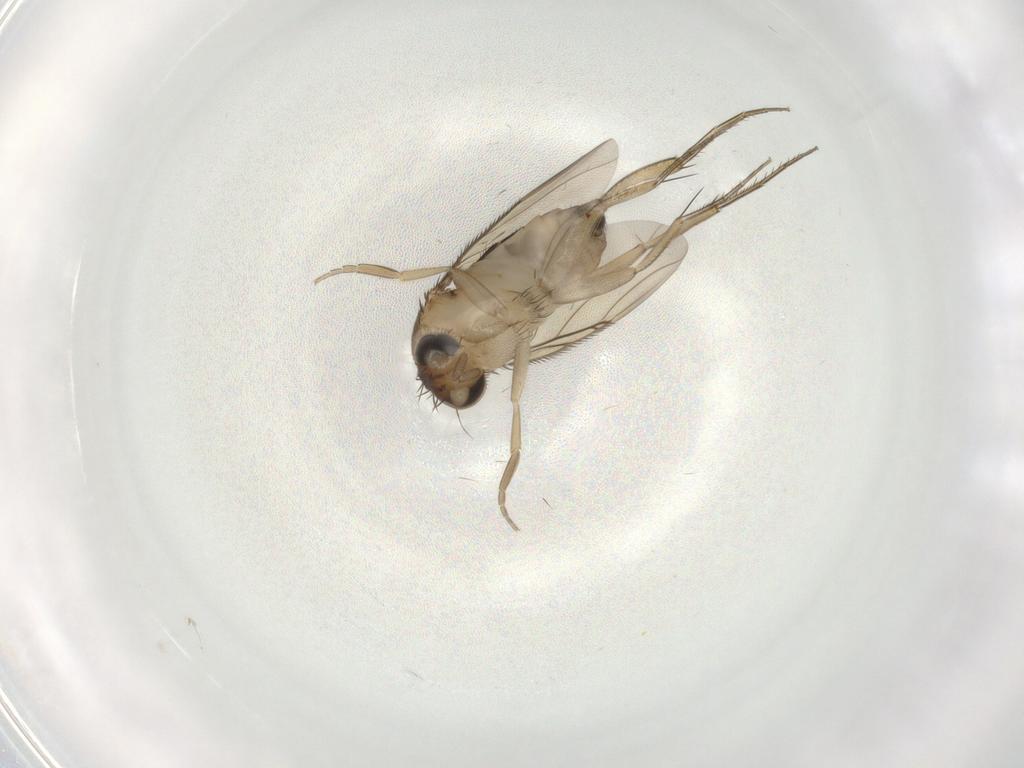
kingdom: Animalia
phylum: Arthropoda
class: Insecta
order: Diptera
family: Phoridae
